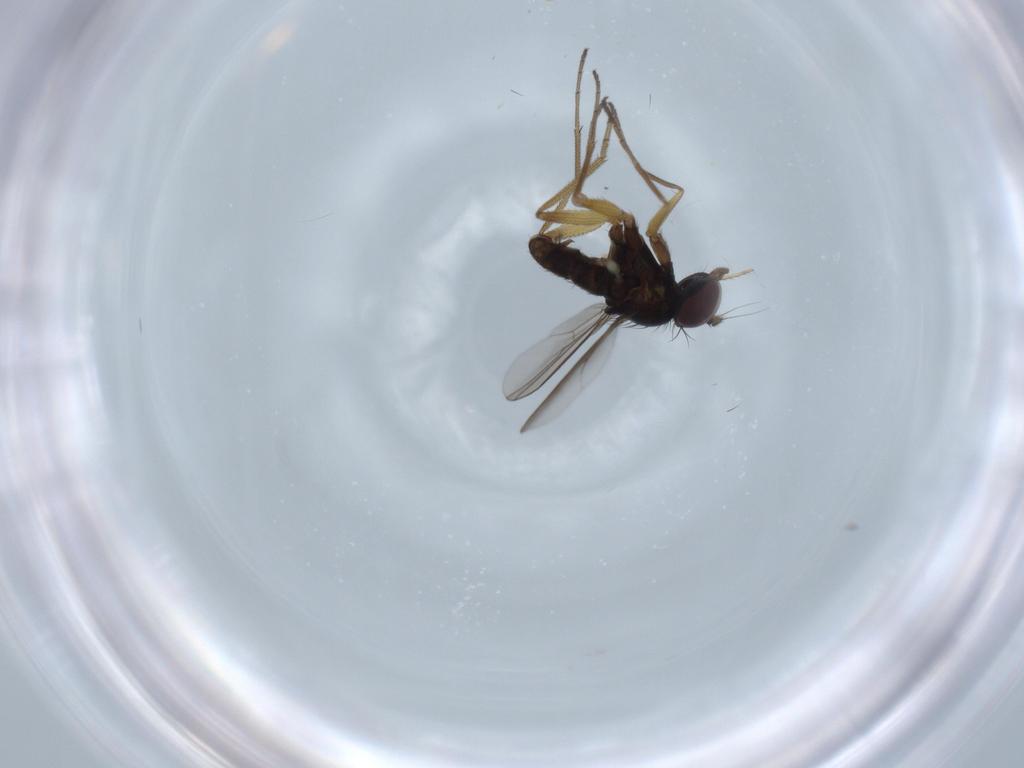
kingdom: Animalia
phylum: Arthropoda
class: Insecta
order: Diptera
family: Dolichopodidae
